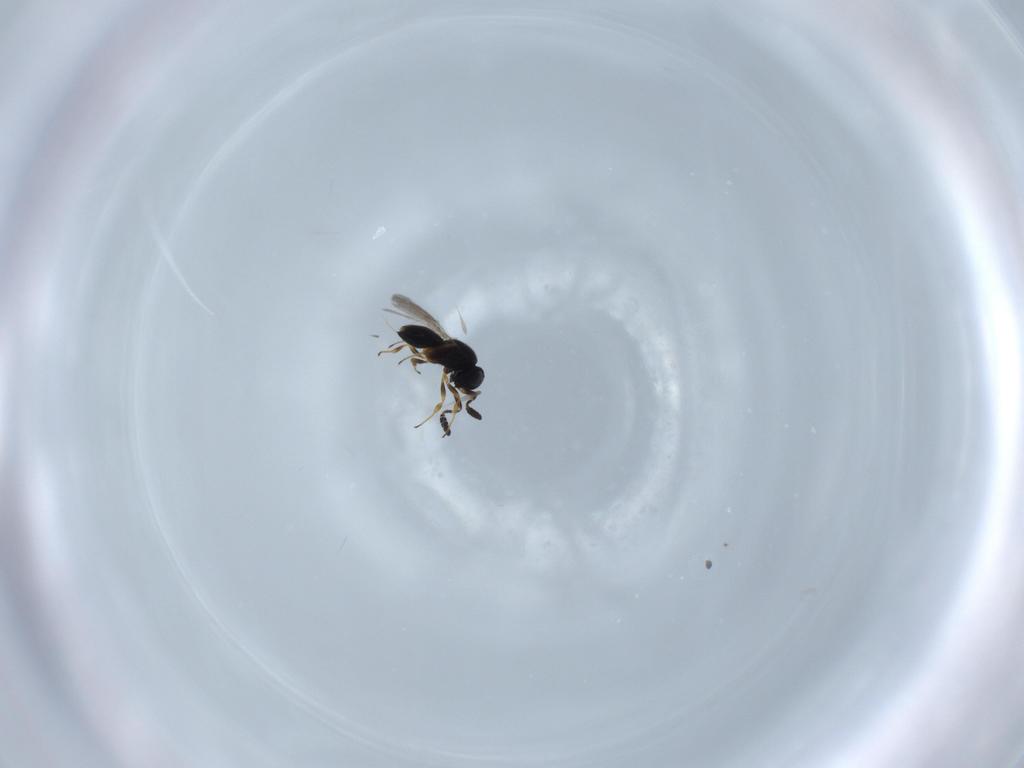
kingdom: Animalia
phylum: Arthropoda
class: Insecta
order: Hymenoptera
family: Scelionidae
